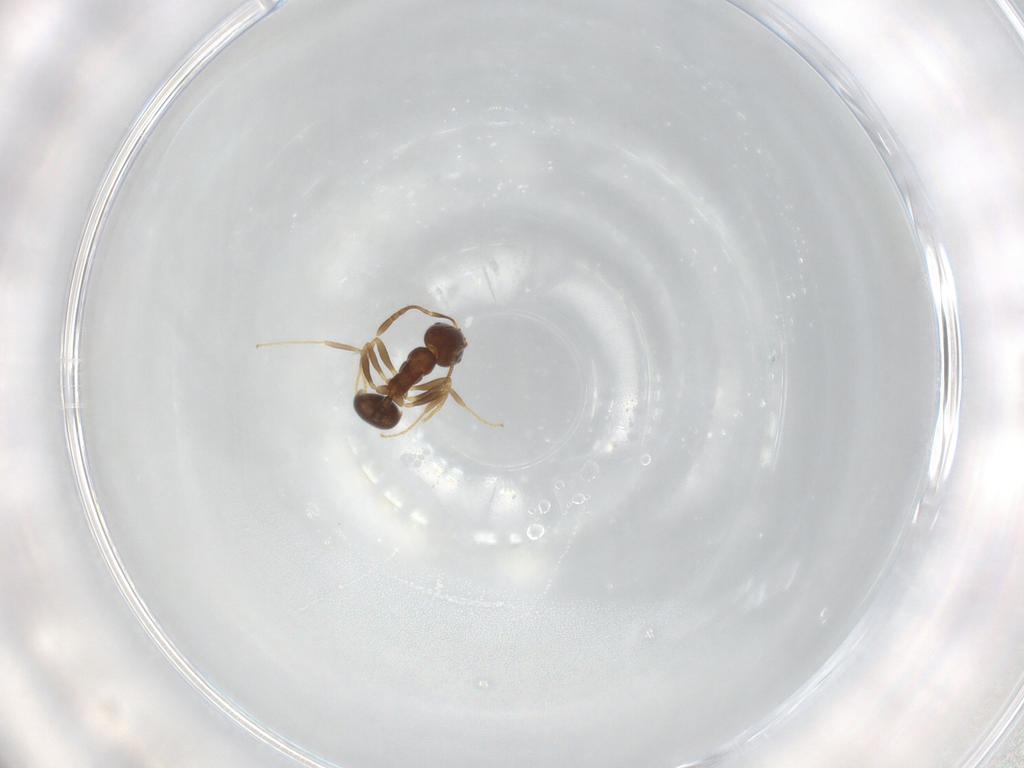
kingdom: Animalia
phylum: Arthropoda
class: Insecta
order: Hymenoptera
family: Formicidae
